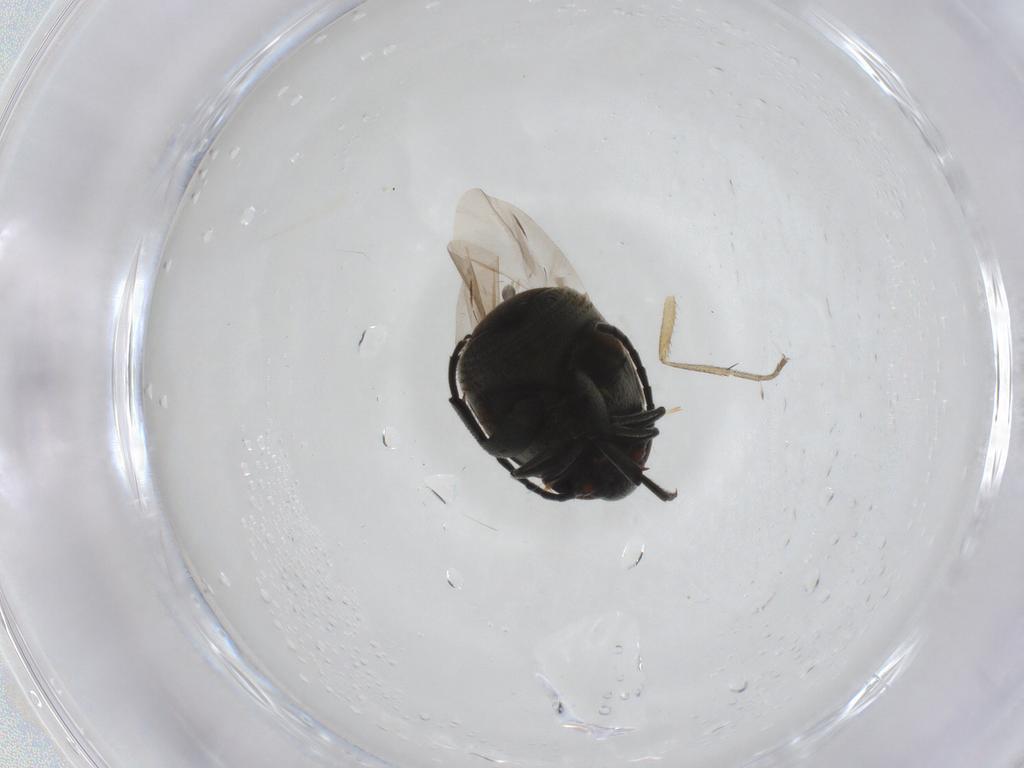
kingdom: Animalia
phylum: Arthropoda
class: Insecta
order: Coleoptera
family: Chrysomelidae
